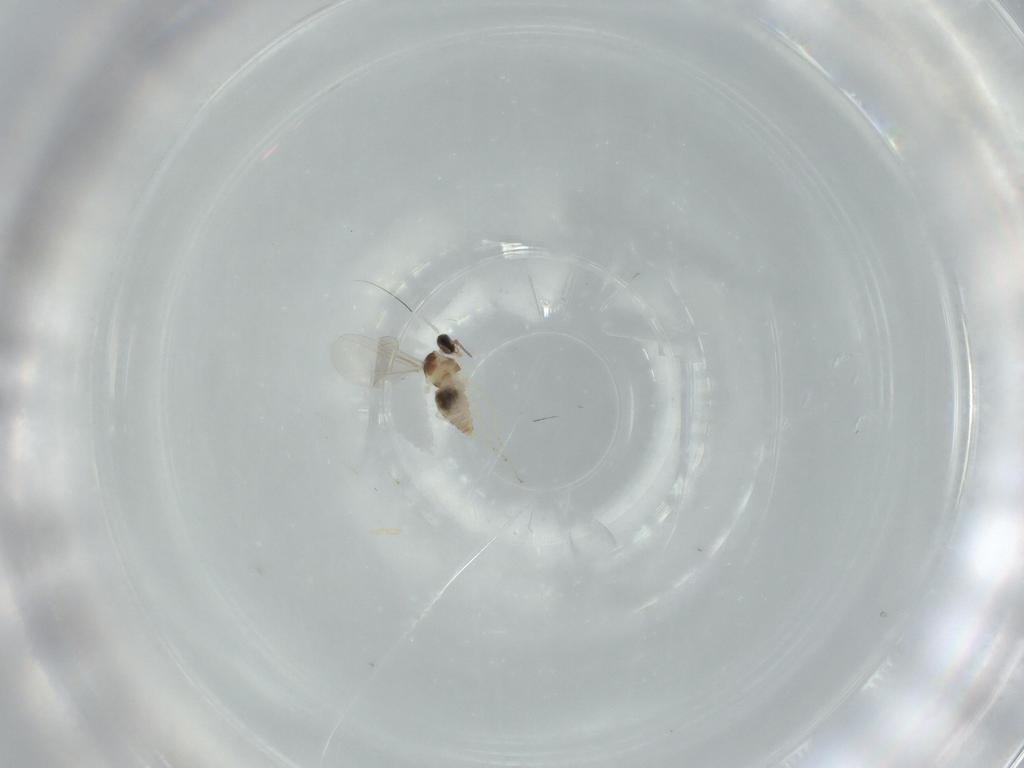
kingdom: Animalia
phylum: Arthropoda
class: Insecta
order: Diptera
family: Cecidomyiidae
